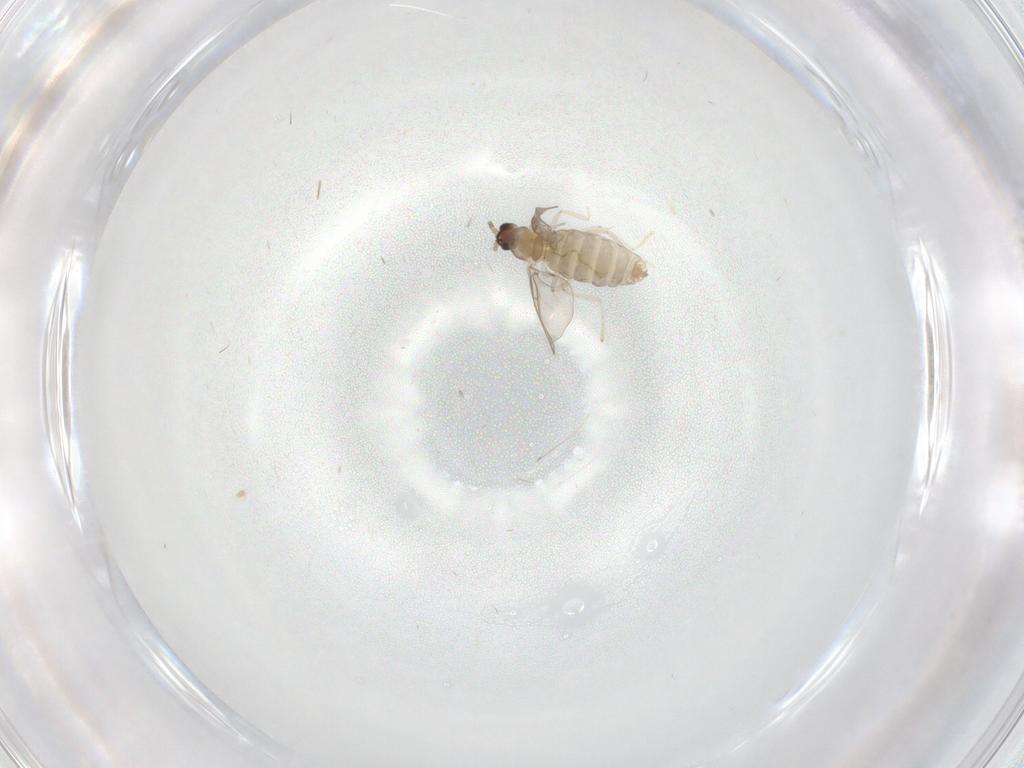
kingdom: Animalia
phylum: Arthropoda
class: Insecta
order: Diptera
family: Cecidomyiidae
